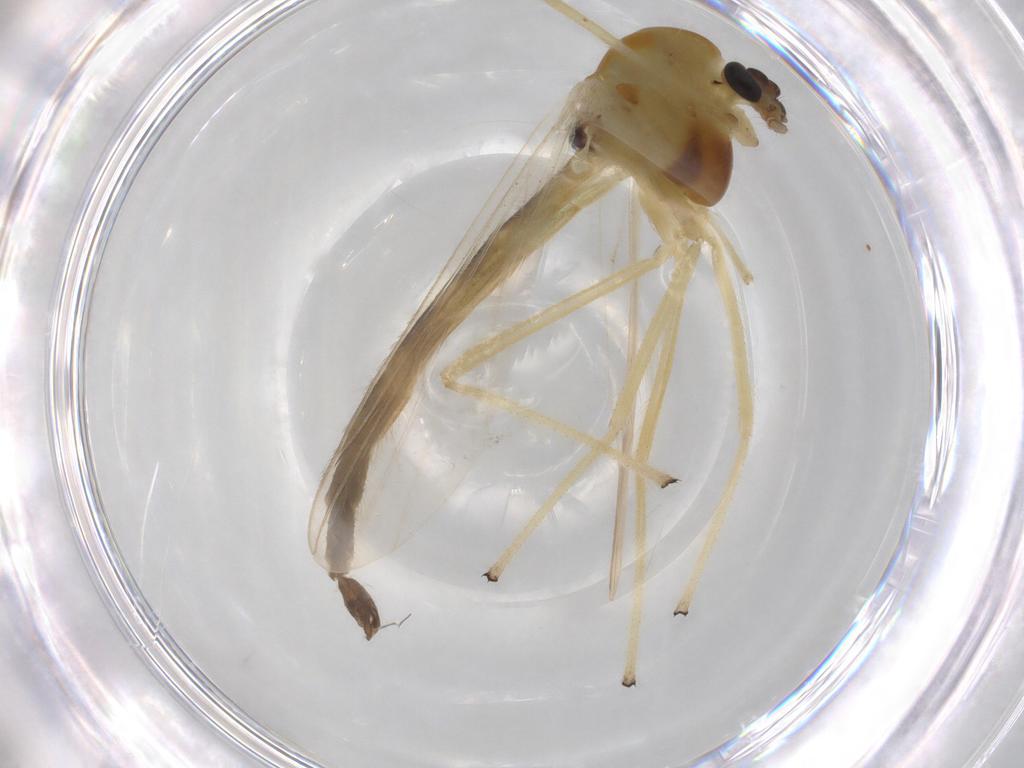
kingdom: Animalia
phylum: Arthropoda
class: Insecta
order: Diptera
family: Chironomidae
